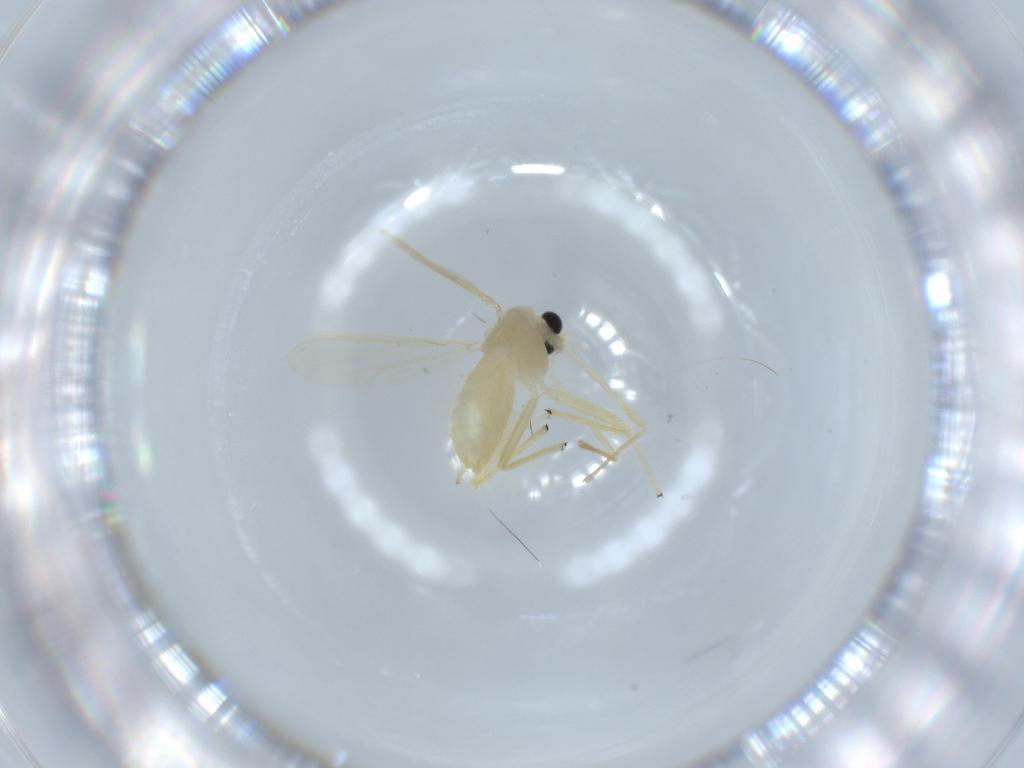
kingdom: Animalia
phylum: Arthropoda
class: Insecta
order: Diptera
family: Chironomidae
